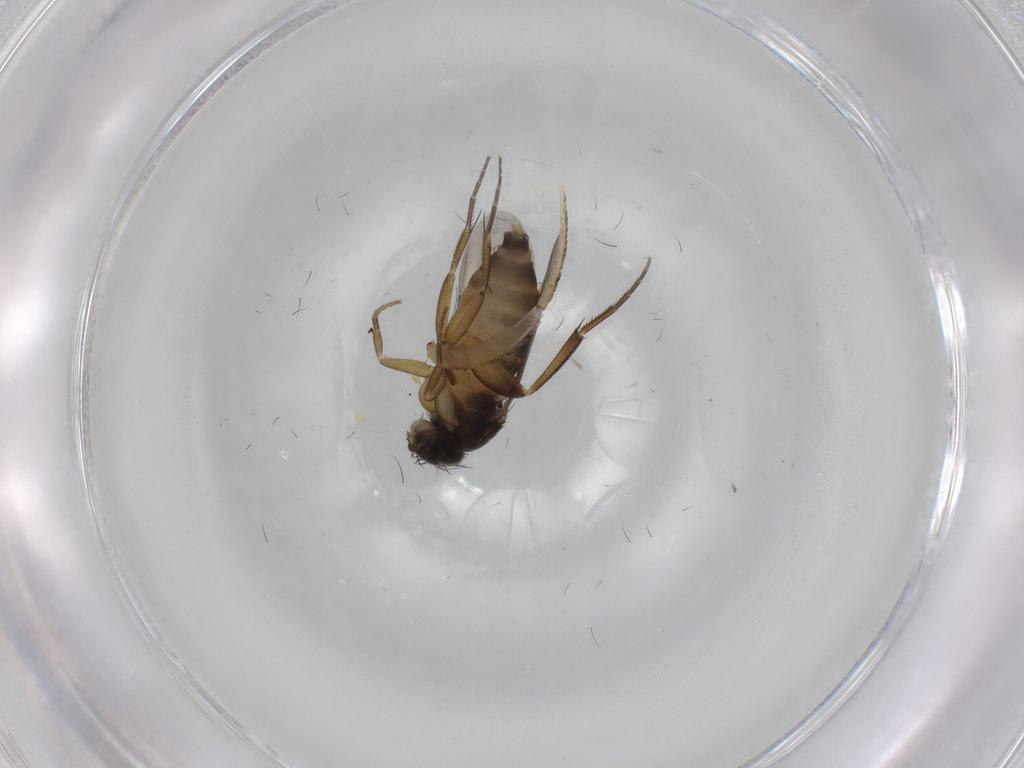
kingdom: Animalia
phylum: Arthropoda
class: Insecta
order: Diptera
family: Phoridae
